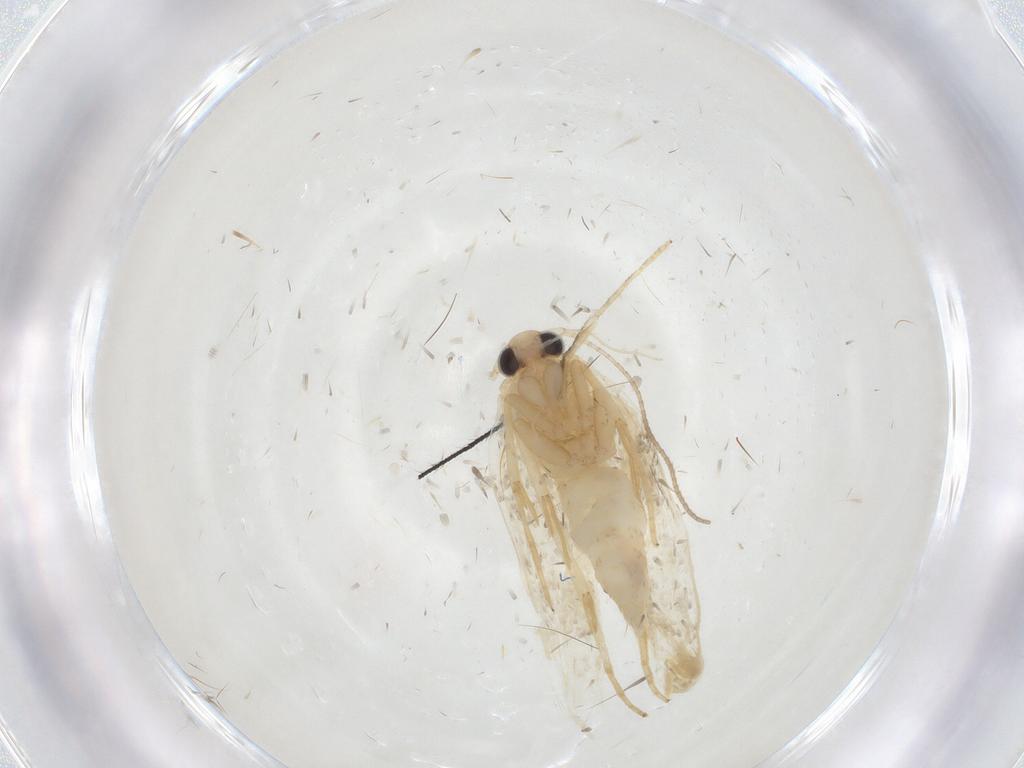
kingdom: Animalia
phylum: Arthropoda
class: Insecta
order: Lepidoptera
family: Erebidae
